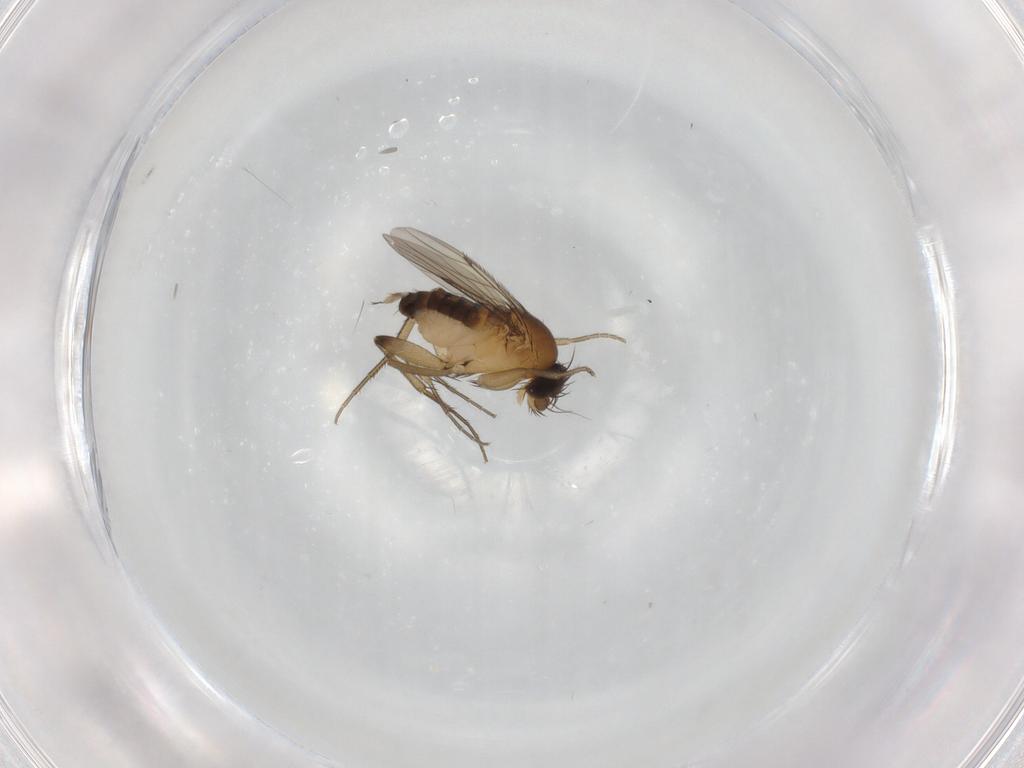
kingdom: Animalia
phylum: Arthropoda
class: Insecta
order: Diptera
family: Phoridae
